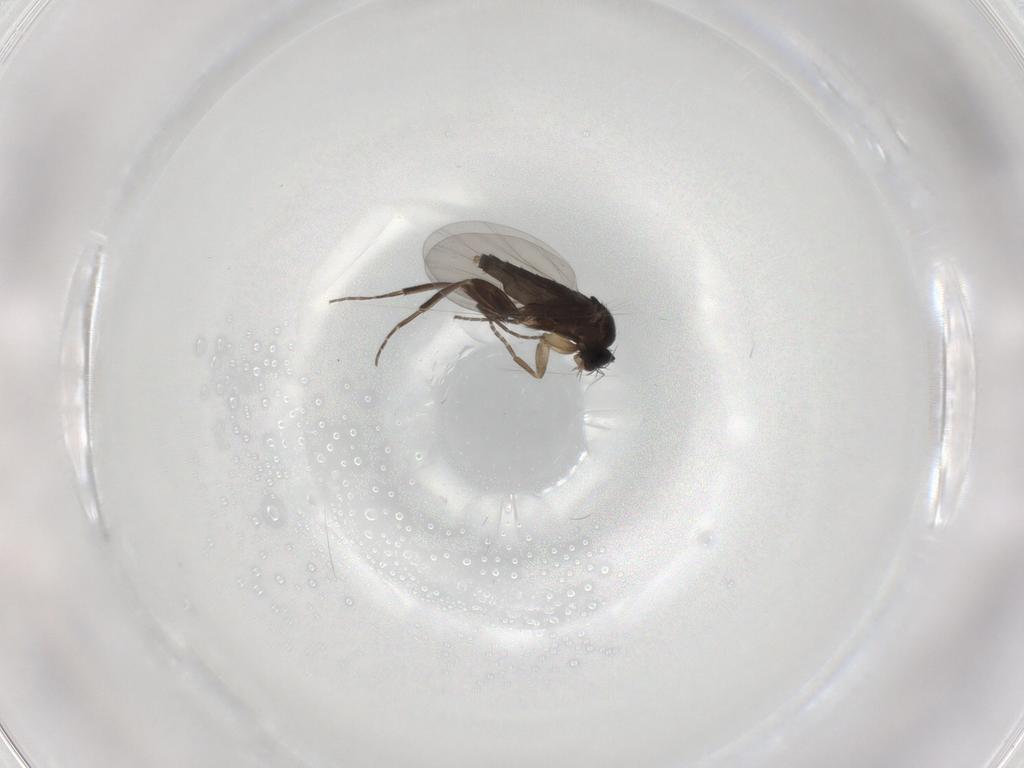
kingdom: Animalia
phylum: Arthropoda
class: Insecta
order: Diptera
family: Phoridae
